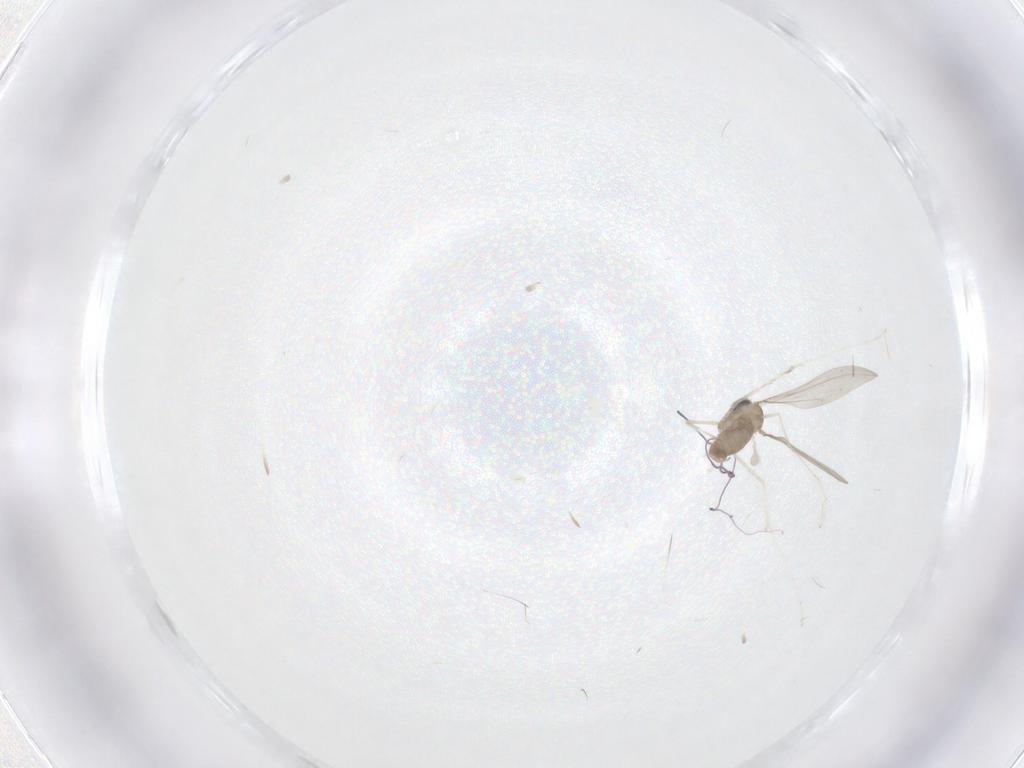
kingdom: Animalia
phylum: Arthropoda
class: Insecta
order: Diptera
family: Cecidomyiidae
